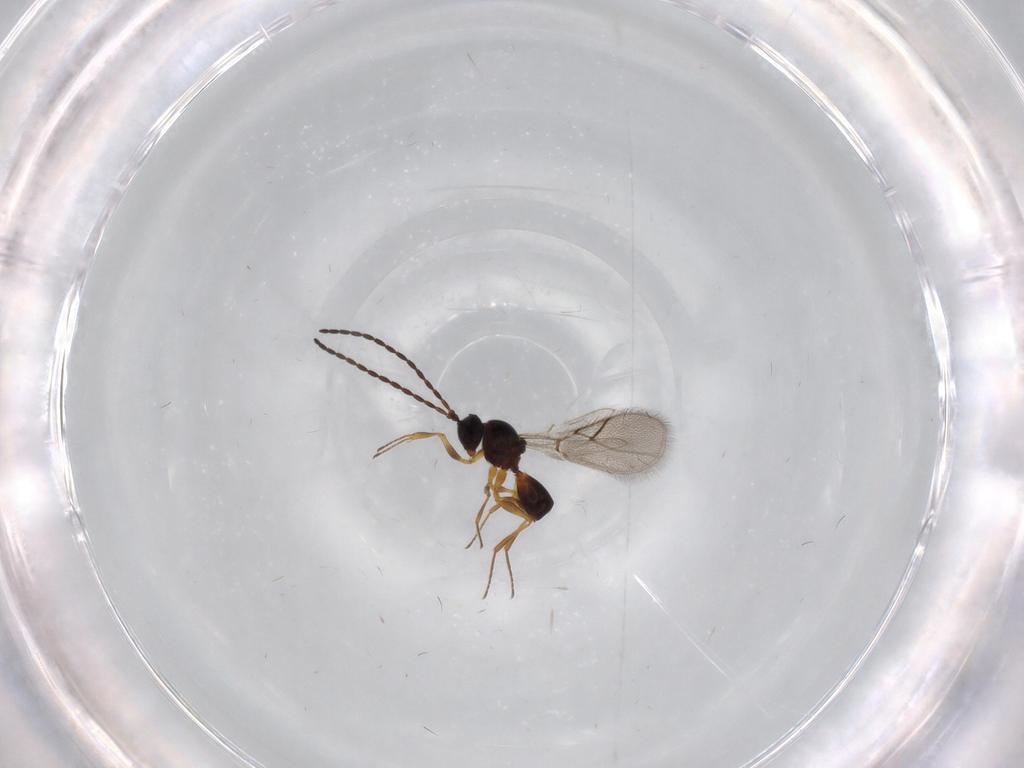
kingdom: Animalia
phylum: Arthropoda
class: Insecta
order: Hymenoptera
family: Figitidae
